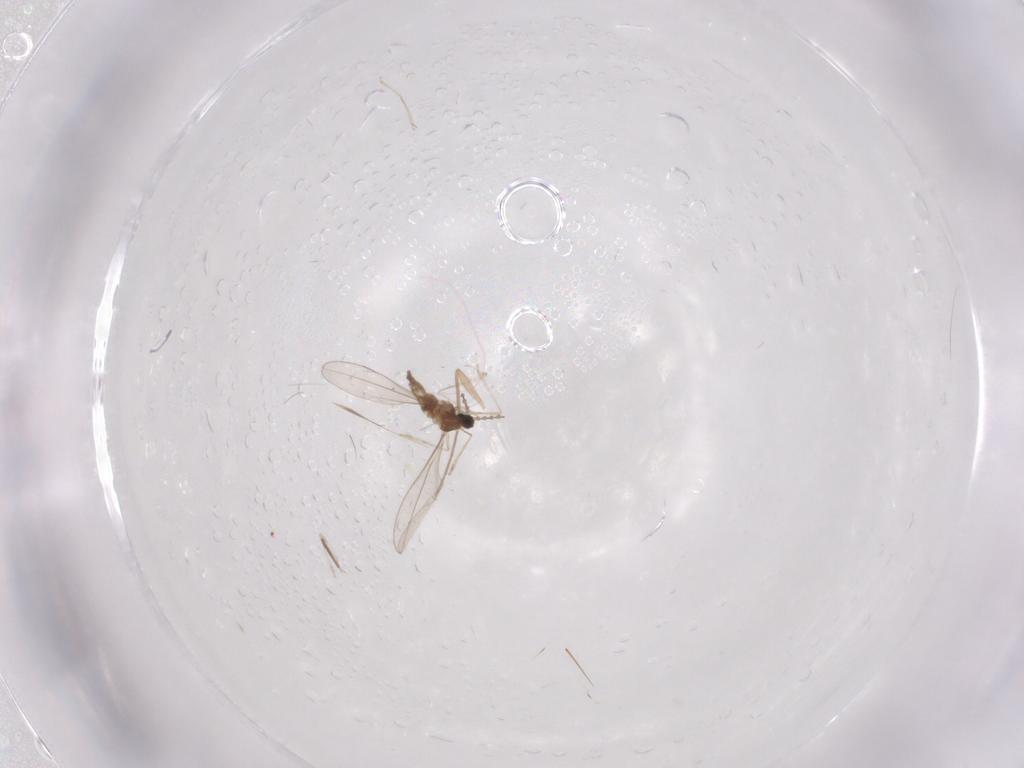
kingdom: Animalia
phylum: Arthropoda
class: Insecta
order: Diptera
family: Cecidomyiidae
